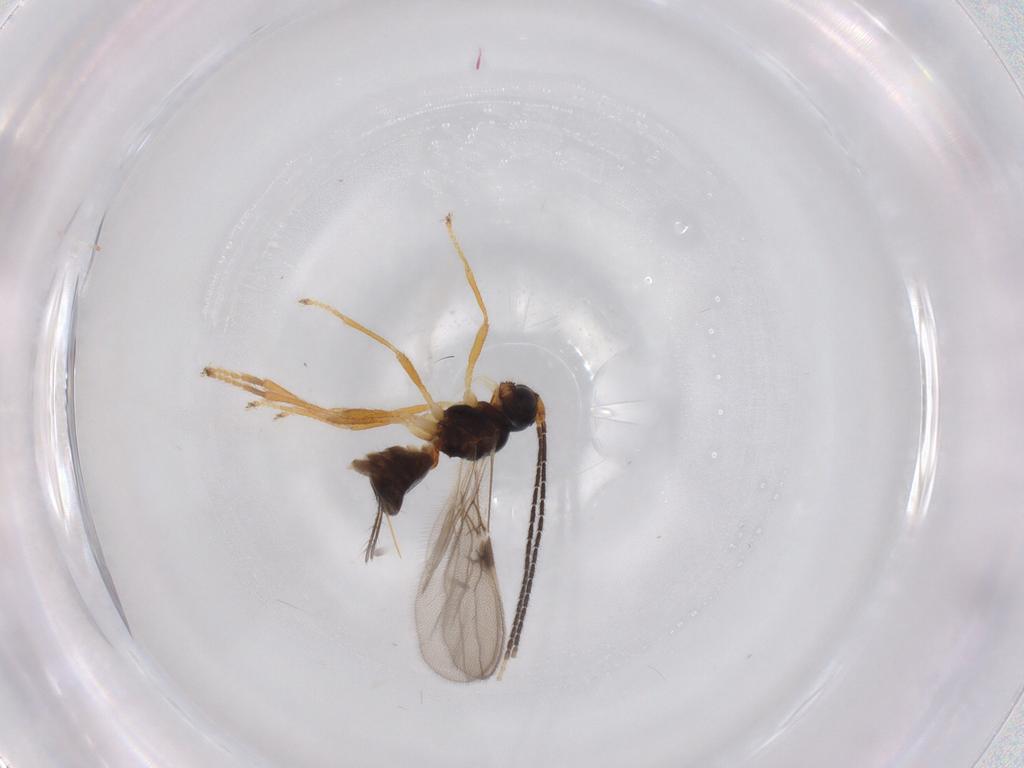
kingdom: Animalia
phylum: Arthropoda
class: Insecta
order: Hymenoptera
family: Braconidae
